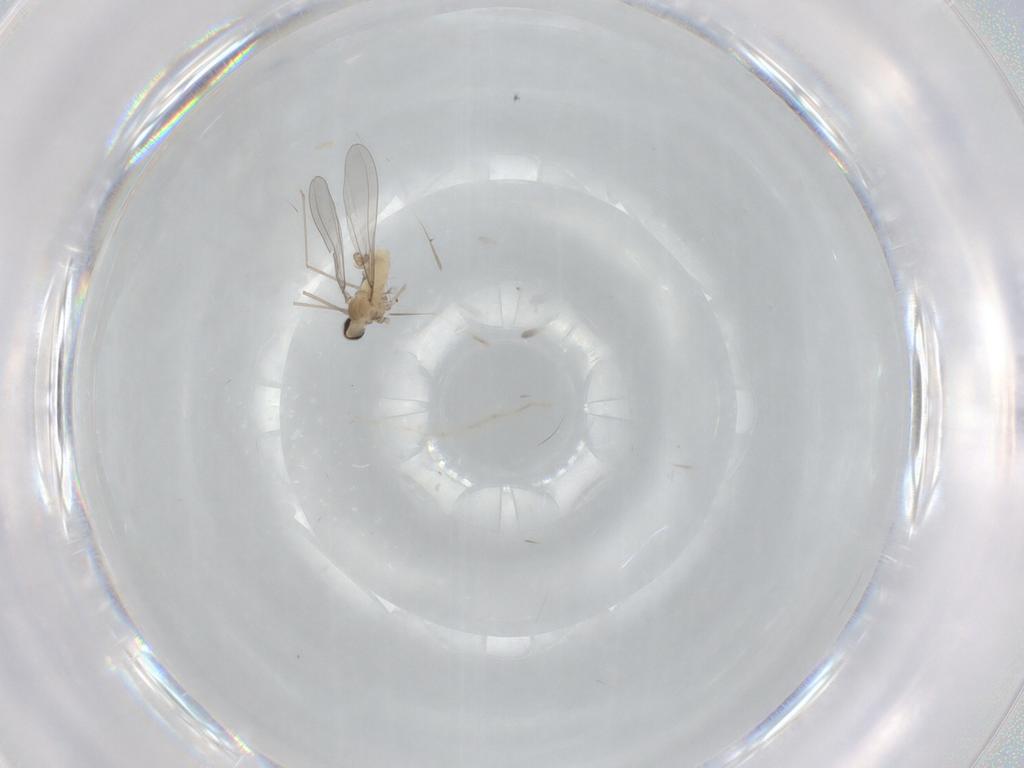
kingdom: Animalia
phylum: Arthropoda
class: Insecta
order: Diptera
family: Cecidomyiidae
